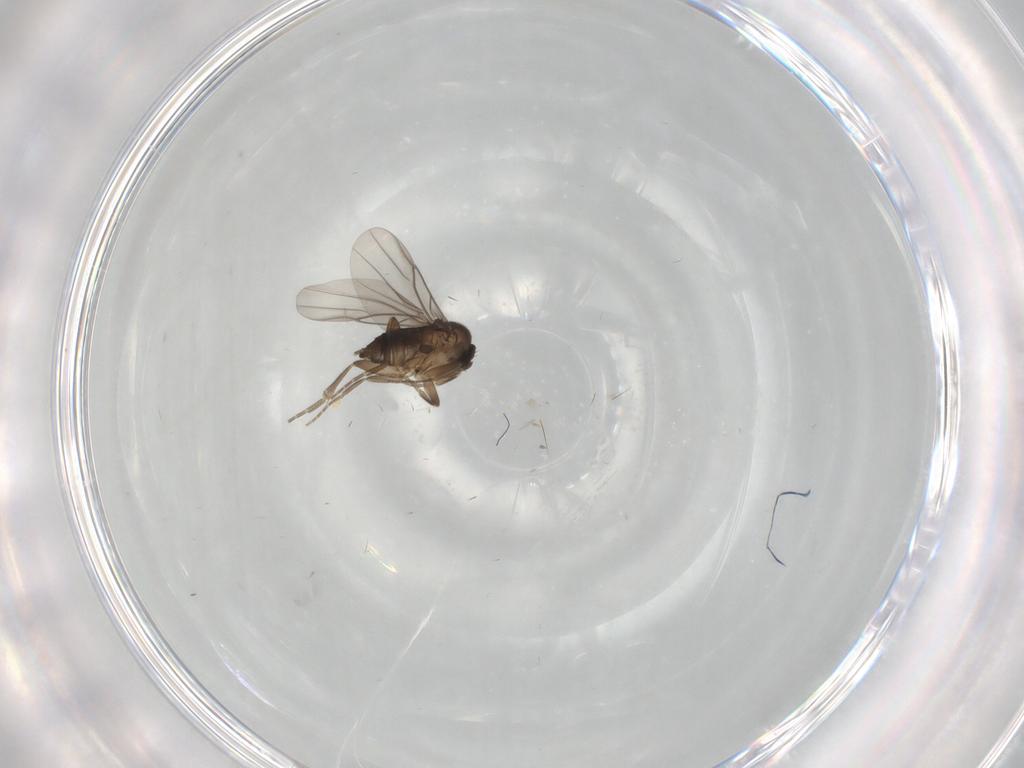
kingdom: Animalia
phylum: Arthropoda
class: Insecta
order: Diptera
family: Psychodidae
